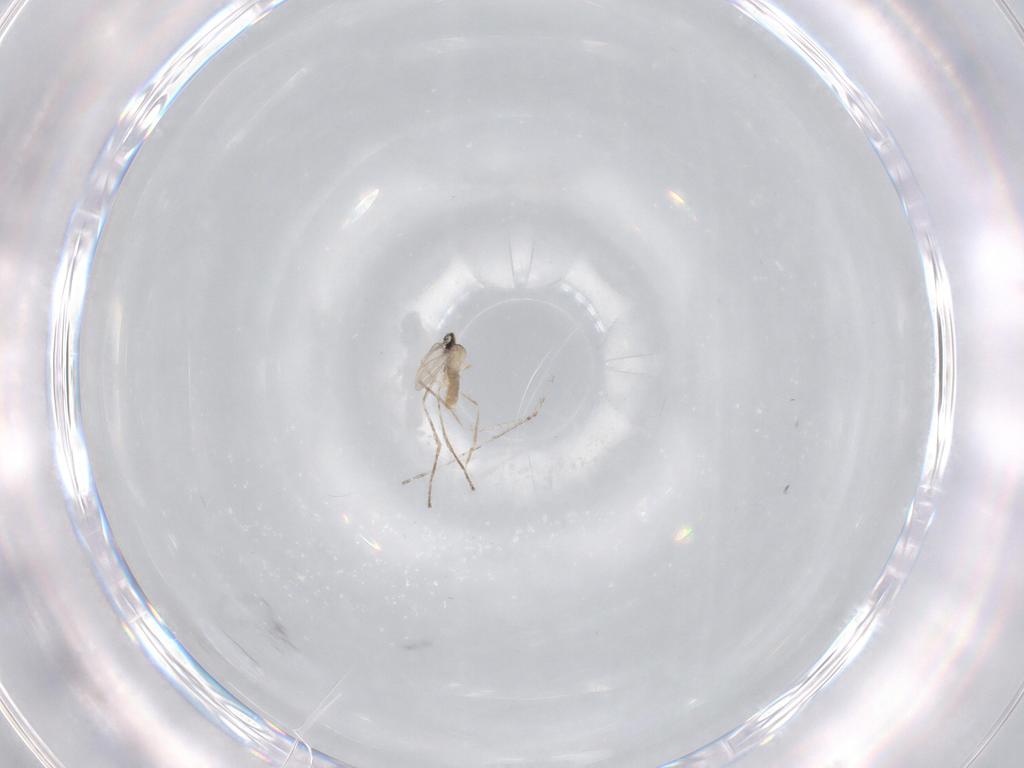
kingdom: Animalia
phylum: Arthropoda
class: Insecta
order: Diptera
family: Cecidomyiidae
